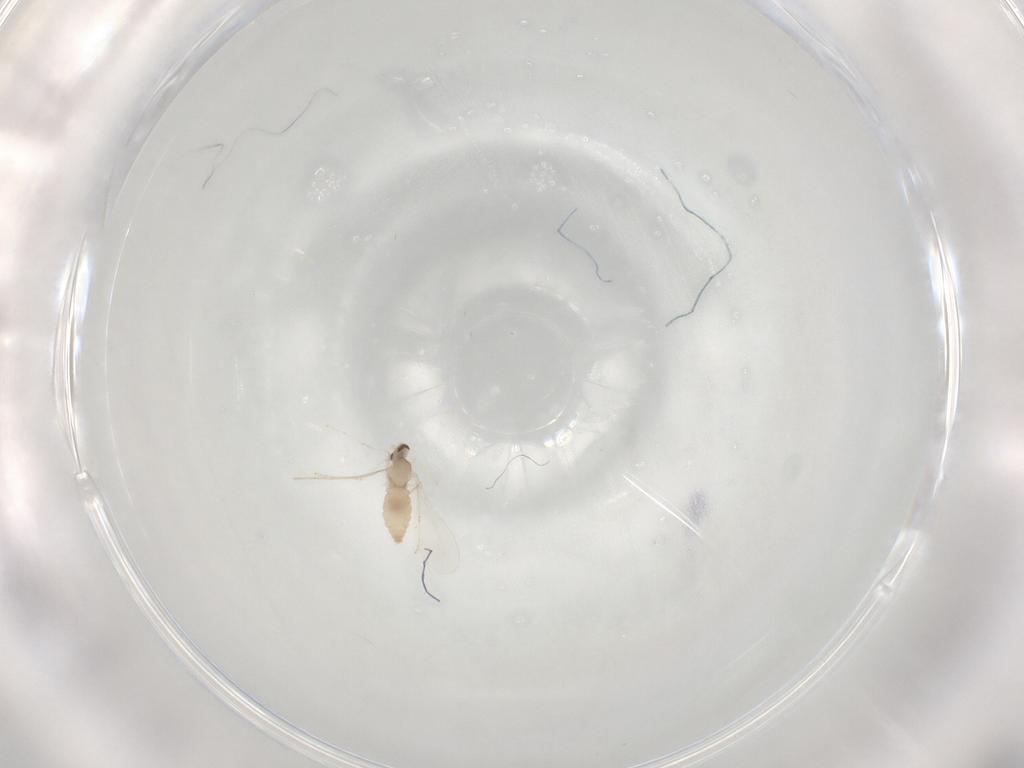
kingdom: Animalia
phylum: Arthropoda
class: Insecta
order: Diptera
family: Cecidomyiidae
